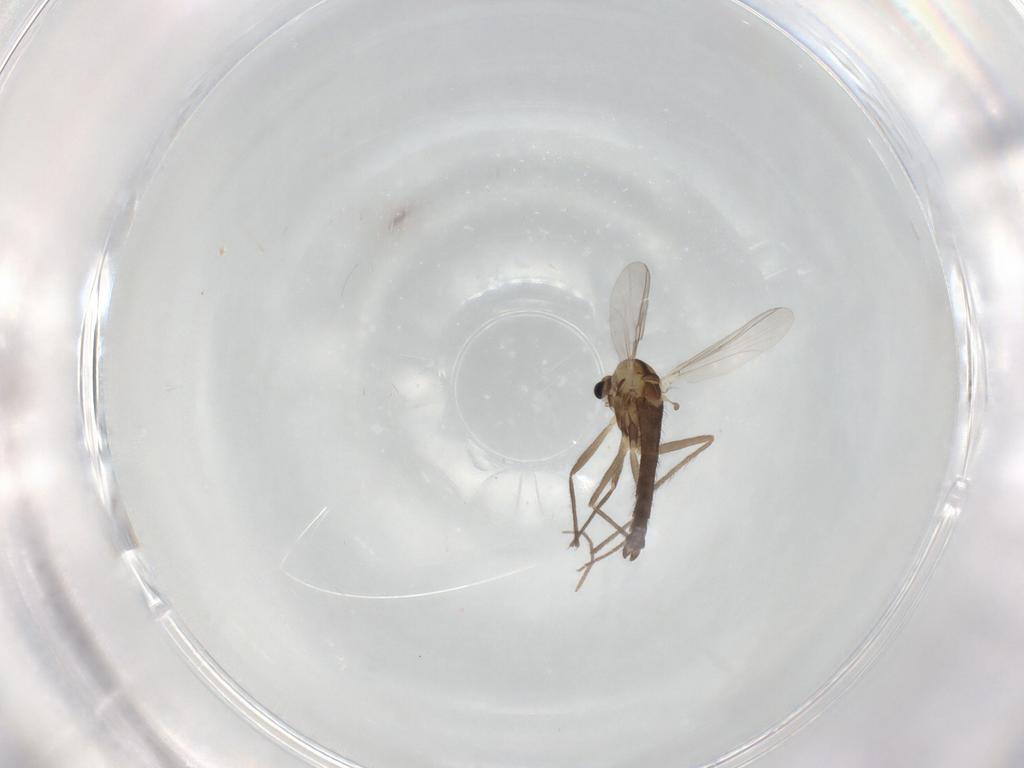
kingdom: Animalia
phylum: Arthropoda
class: Insecta
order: Diptera
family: Chironomidae
